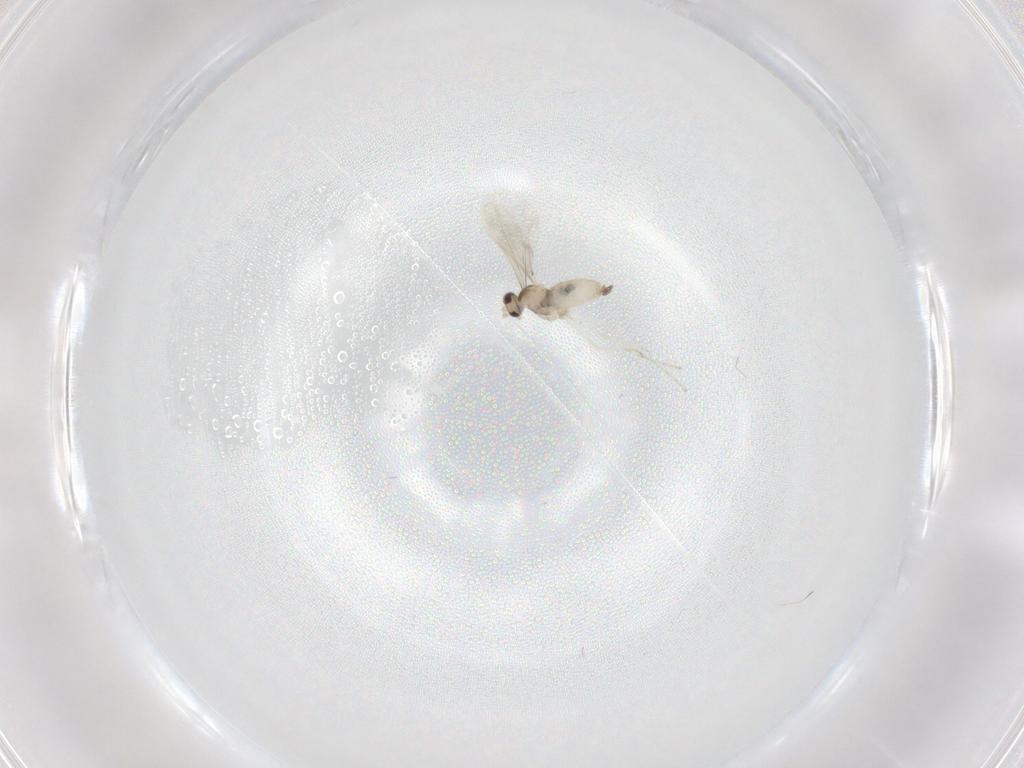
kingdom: Animalia
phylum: Arthropoda
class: Insecta
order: Diptera
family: Cecidomyiidae
